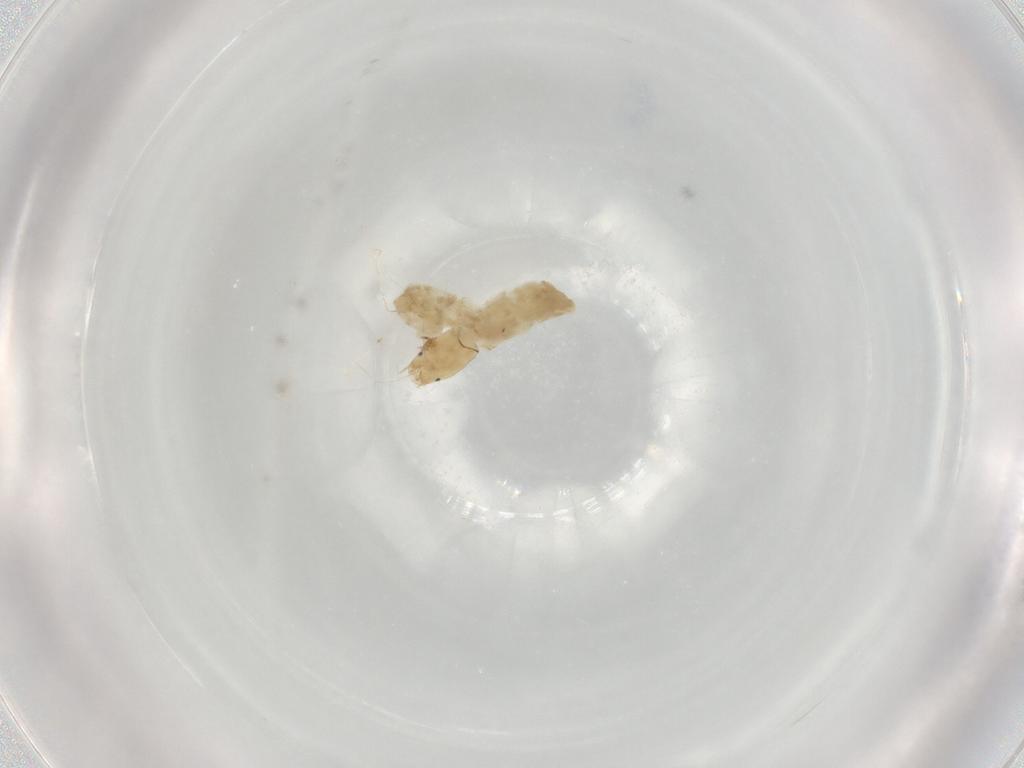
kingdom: Animalia
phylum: Arthropoda
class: Insecta
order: Diptera
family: Chironomidae
